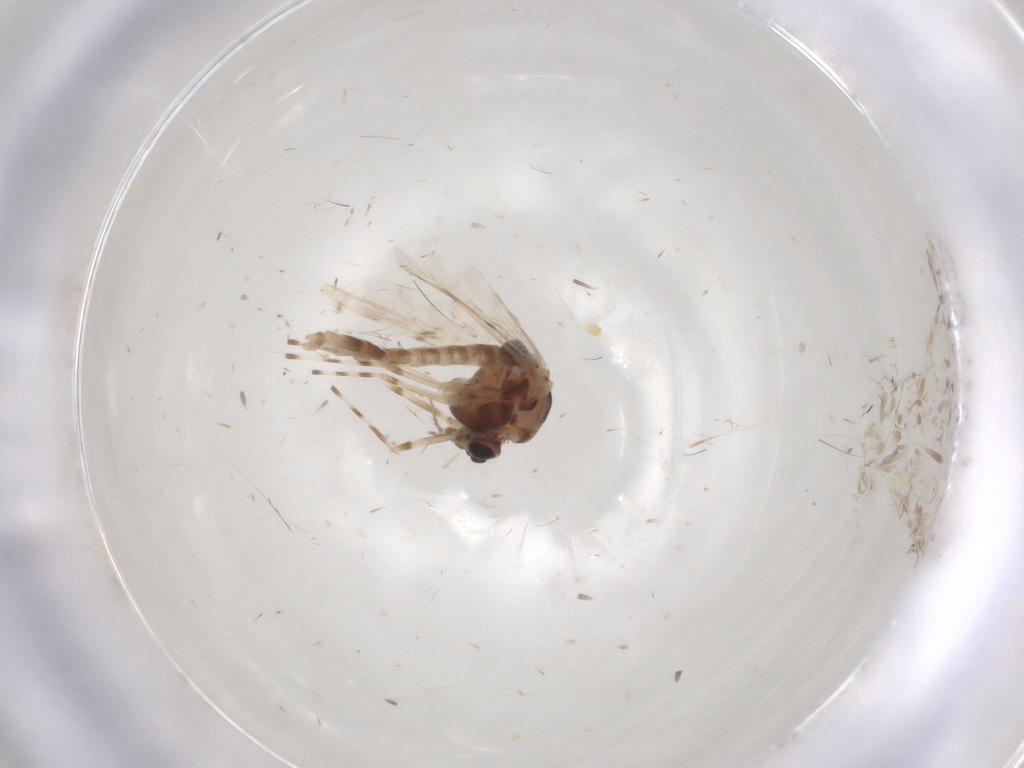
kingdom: Animalia
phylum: Arthropoda
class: Insecta
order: Diptera
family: Chironomidae
